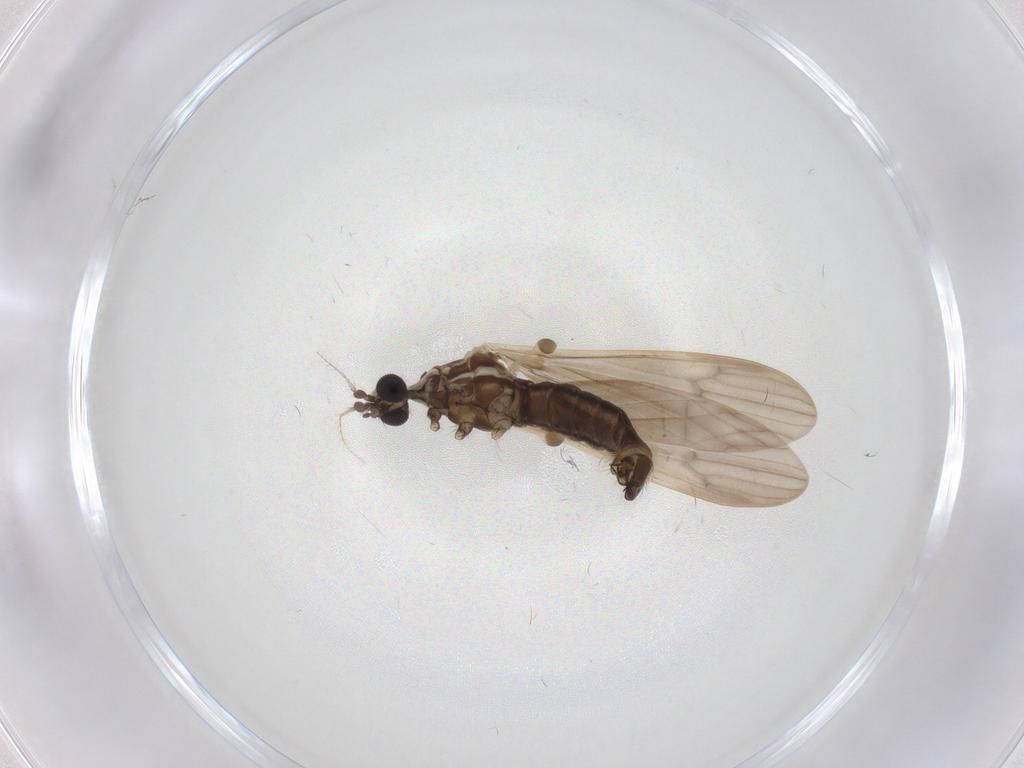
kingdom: Animalia
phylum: Arthropoda
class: Insecta
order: Diptera
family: Limoniidae
